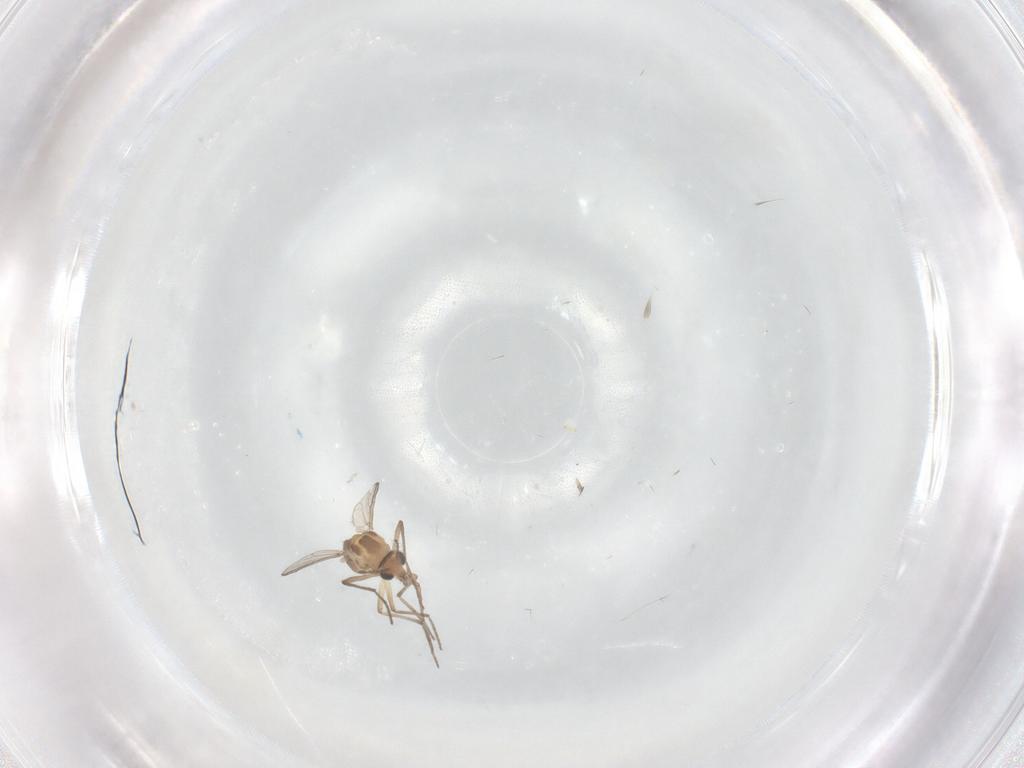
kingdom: Animalia
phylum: Arthropoda
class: Insecta
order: Diptera
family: Chironomidae
